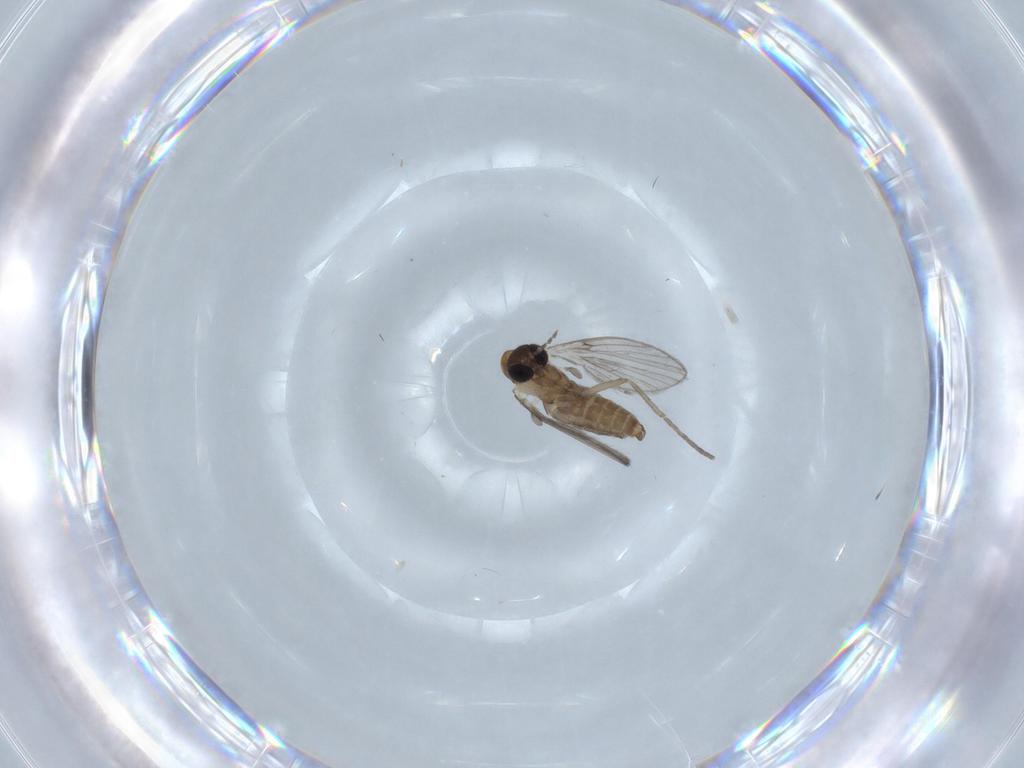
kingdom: Animalia
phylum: Arthropoda
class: Insecta
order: Diptera
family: Psychodidae
